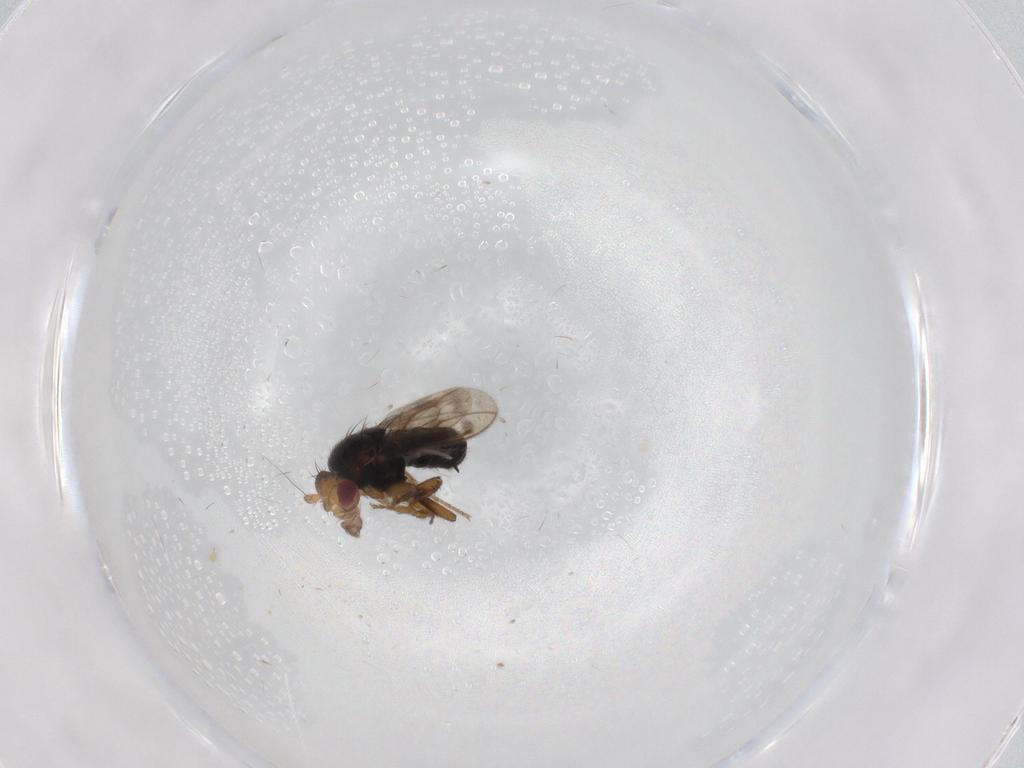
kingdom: Animalia
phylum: Arthropoda
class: Insecta
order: Diptera
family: Sphaeroceridae
